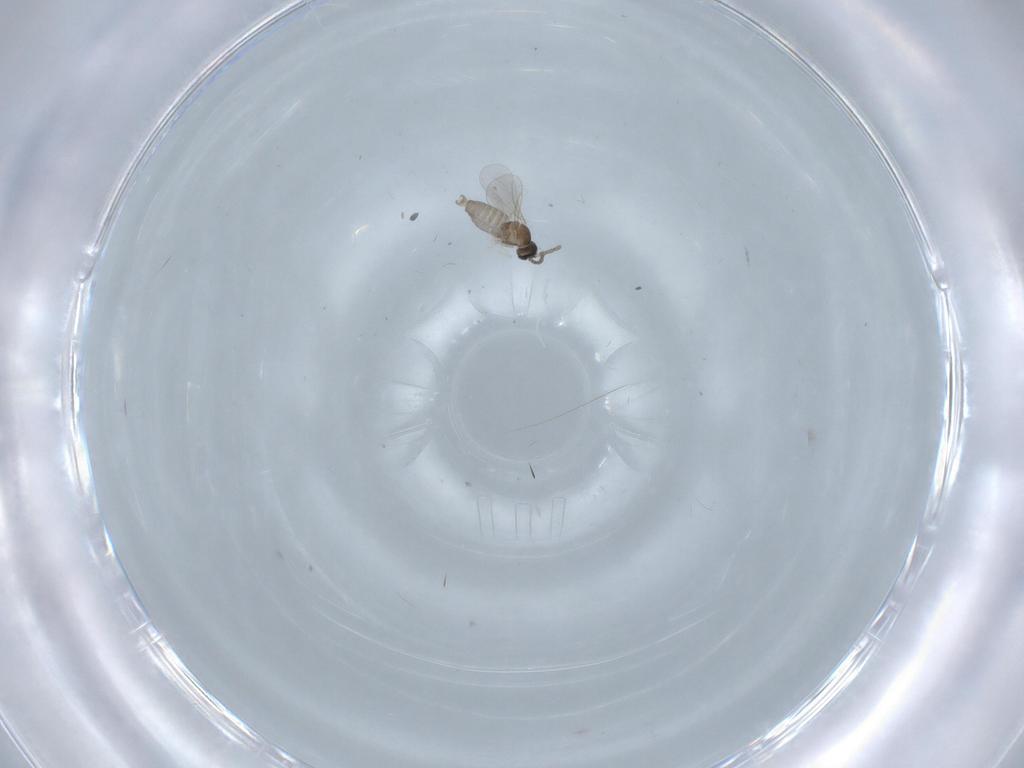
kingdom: Animalia
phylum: Arthropoda
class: Insecta
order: Diptera
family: Cecidomyiidae
